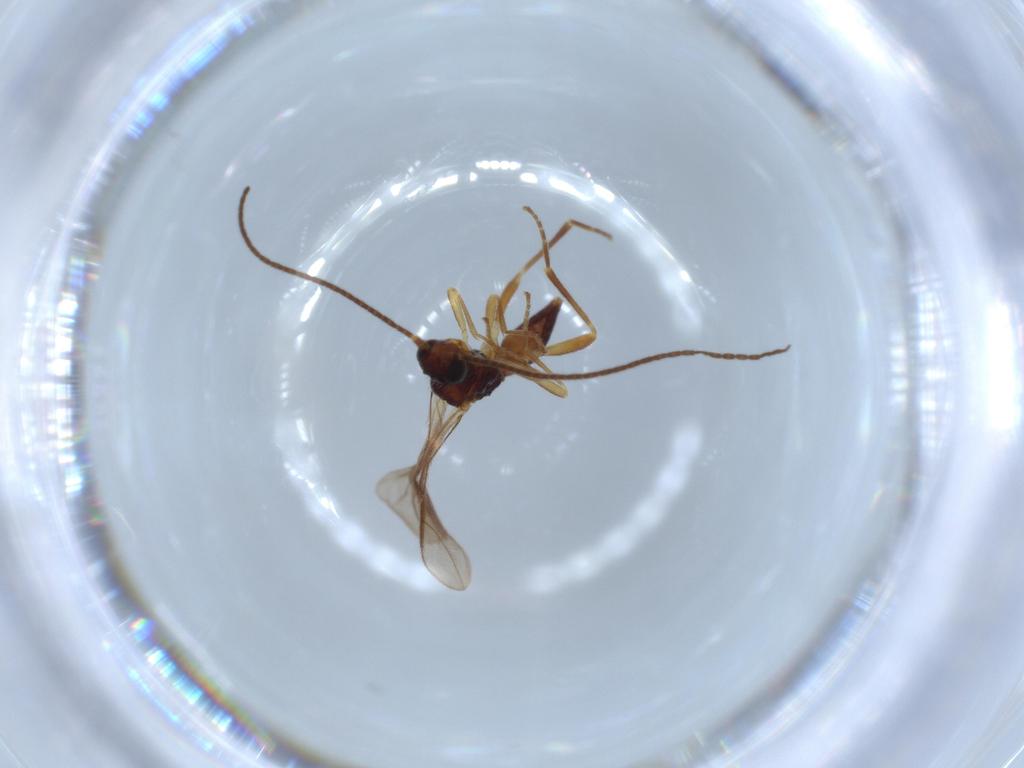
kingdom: Animalia
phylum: Arthropoda
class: Insecta
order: Hymenoptera
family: Braconidae
